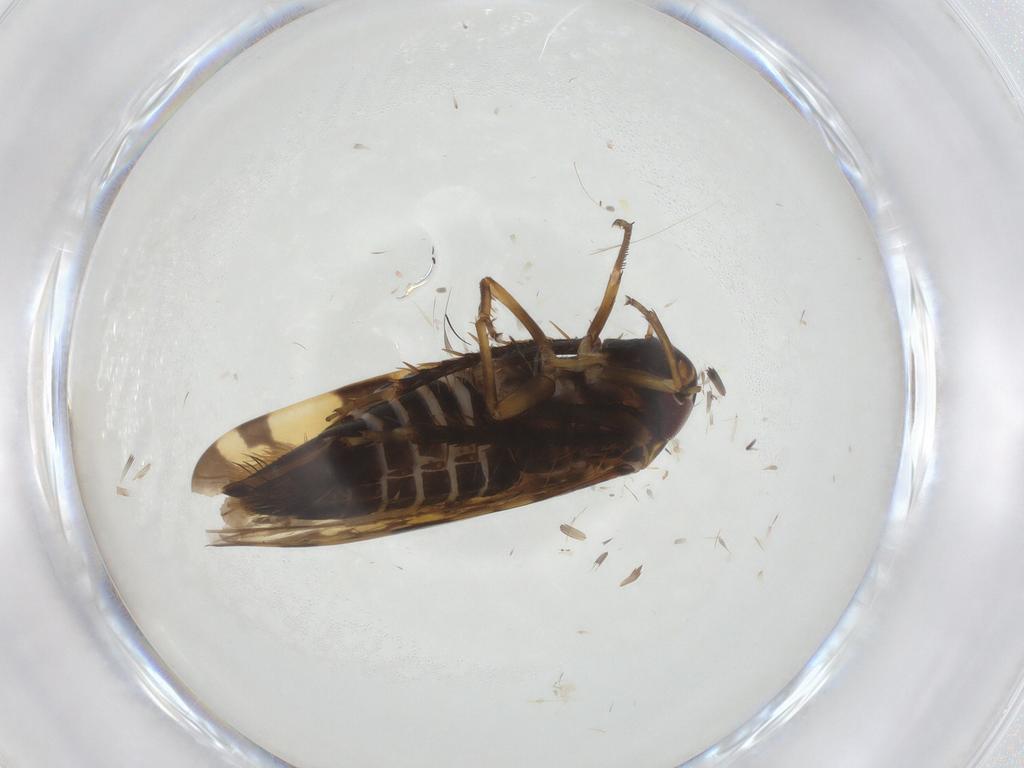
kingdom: Animalia
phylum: Arthropoda
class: Insecta
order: Hemiptera
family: Cicadellidae
